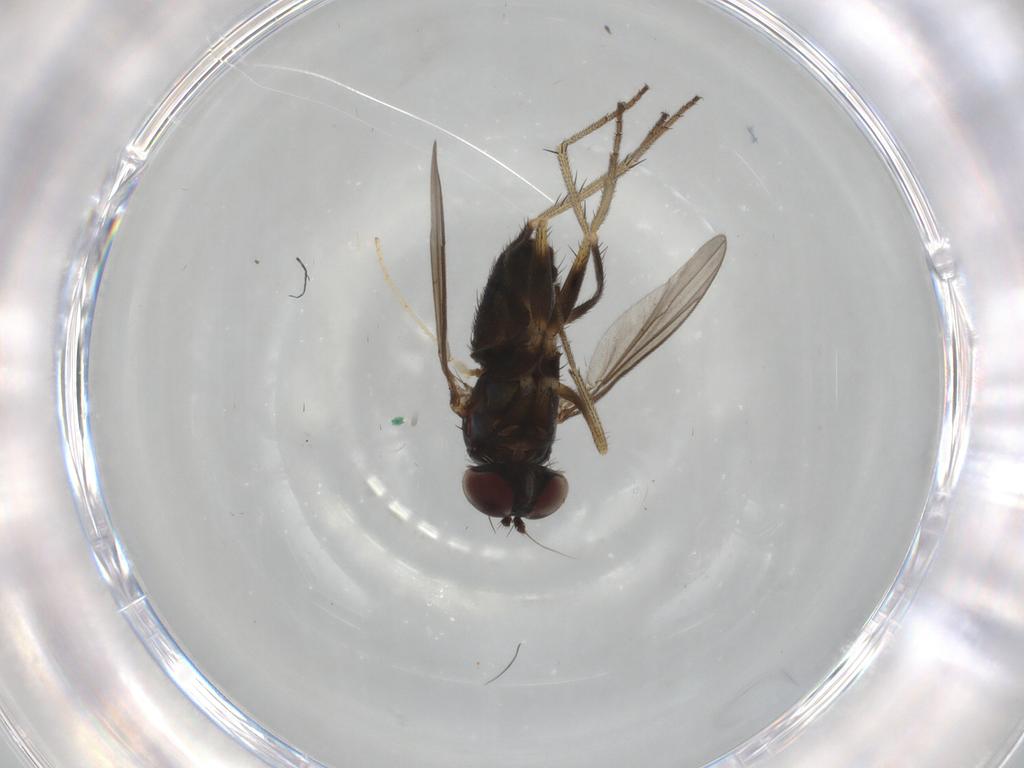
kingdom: Animalia
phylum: Arthropoda
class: Insecta
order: Diptera
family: Limoniidae
